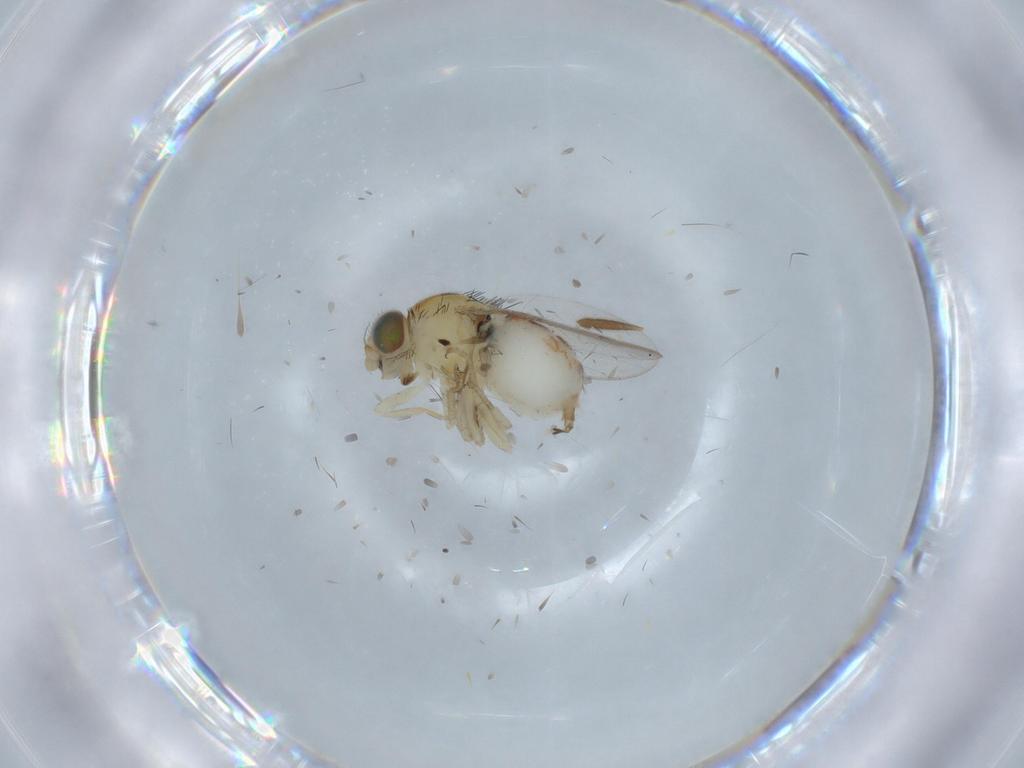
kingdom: Animalia
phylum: Arthropoda
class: Insecta
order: Diptera
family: Chloropidae
